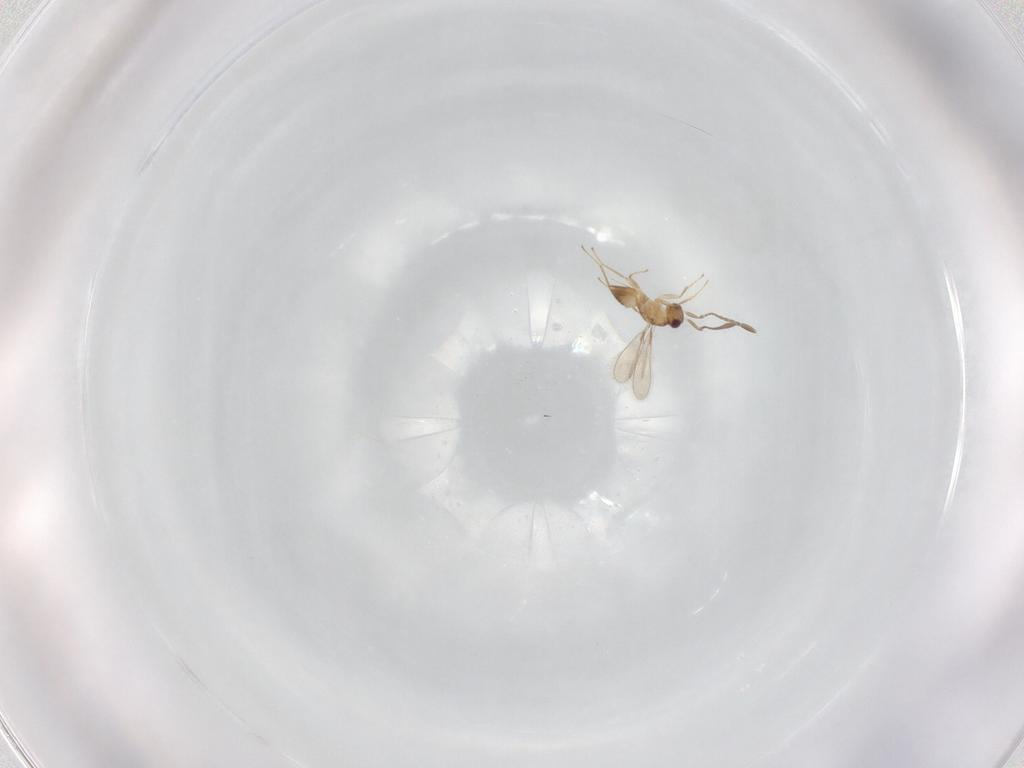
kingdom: Animalia
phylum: Arthropoda
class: Insecta
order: Hymenoptera
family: Mymaridae
